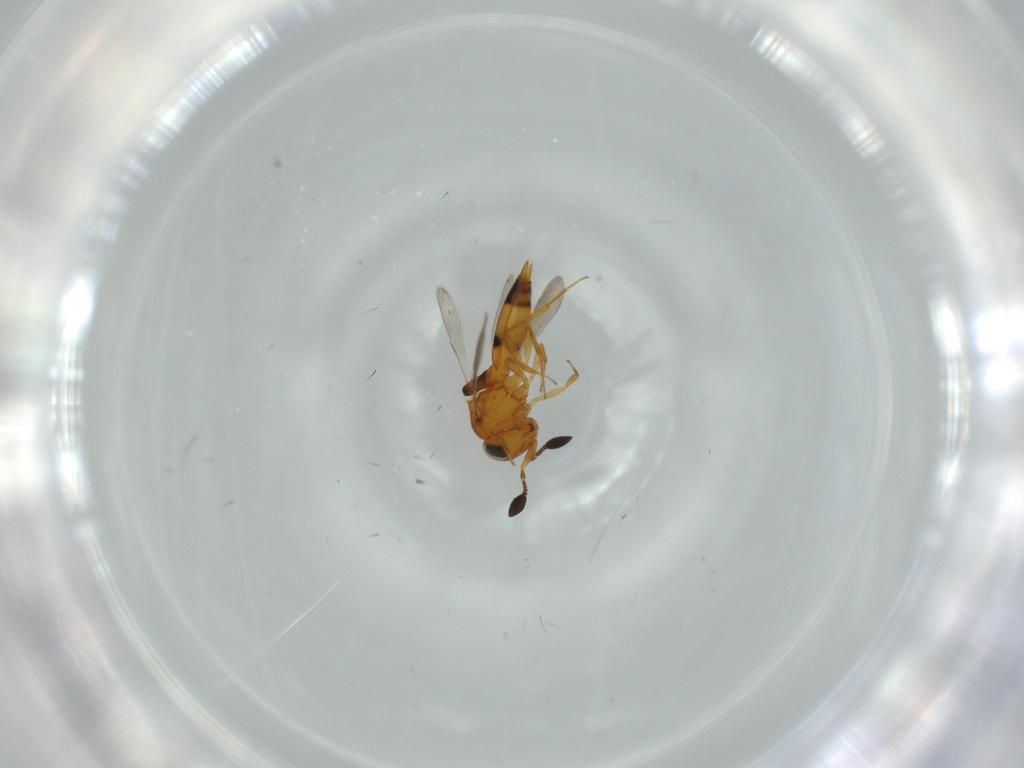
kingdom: Animalia
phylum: Arthropoda
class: Insecta
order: Hymenoptera
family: Scelionidae
